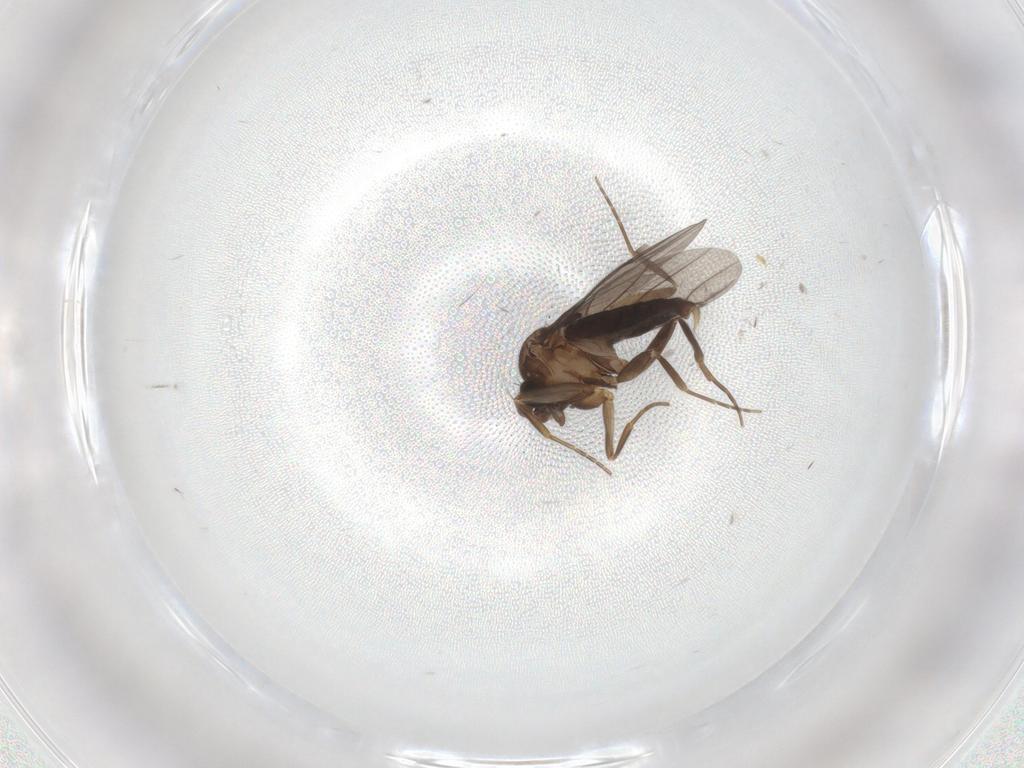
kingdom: Animalia
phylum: Arthropoda
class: Insecta
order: Diptera
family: Cecidomyiidae
